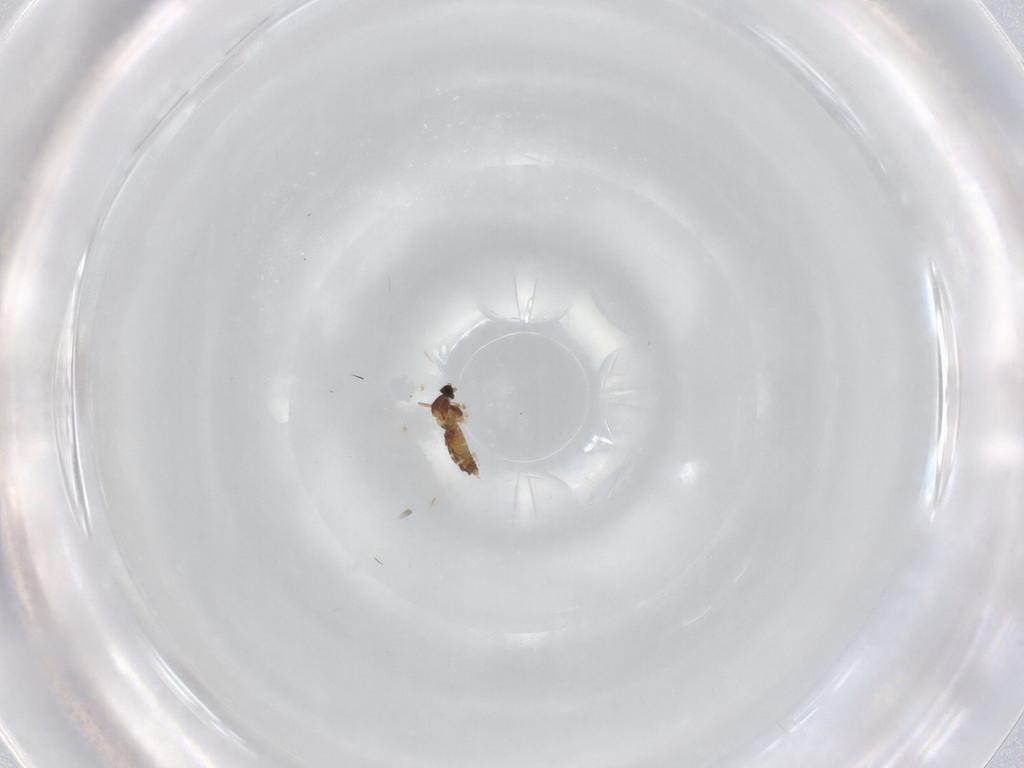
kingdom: Animalia
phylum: Arthropoda
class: Insecta
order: Diptera
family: Cecidomyiidae
